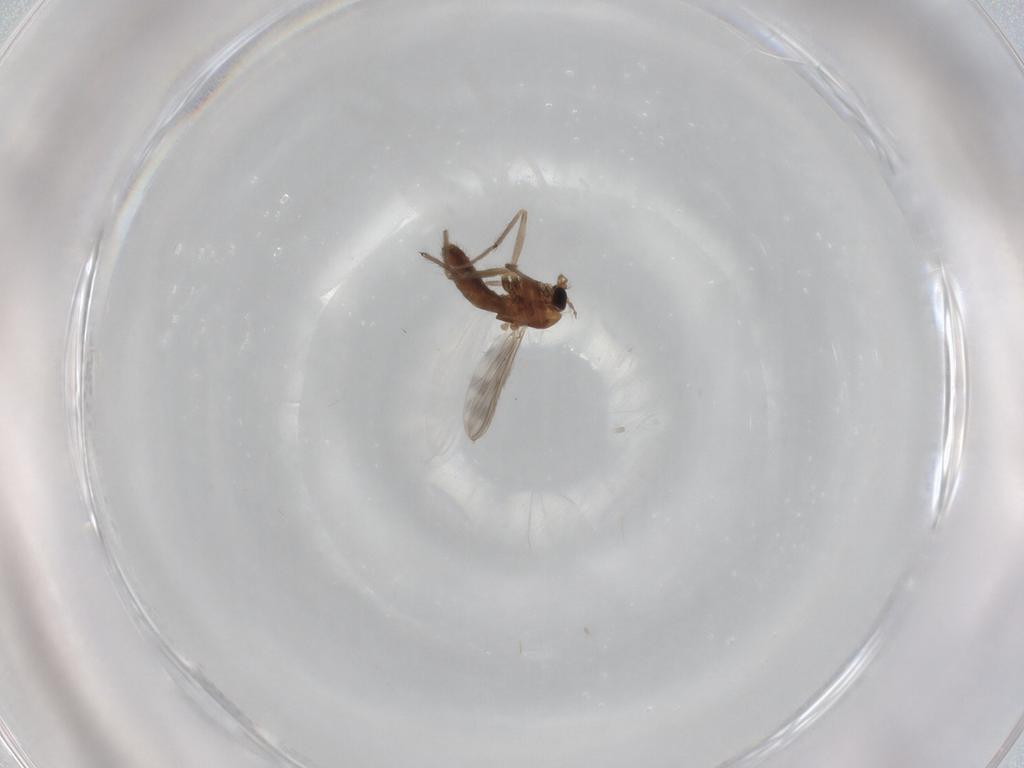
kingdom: Animalia
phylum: Arthropoda
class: Insecta
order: Diptera
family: Chironomidae
